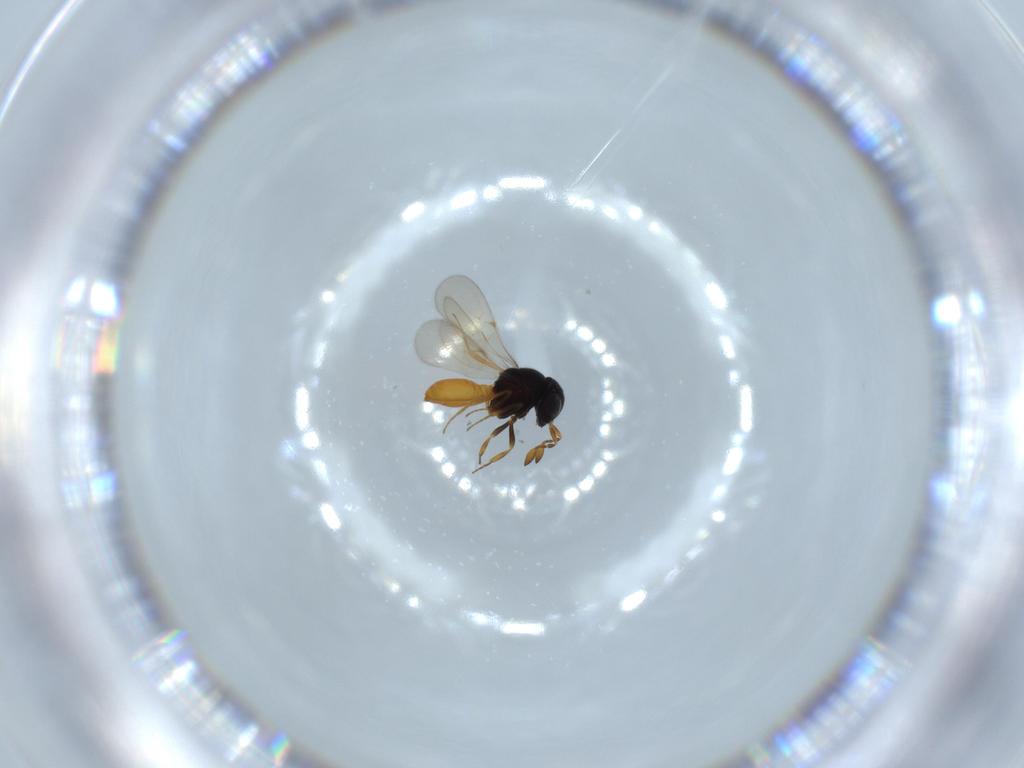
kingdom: Animalia
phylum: Arthropoda
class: Insecta
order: Hymenoptera
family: Scelionidae
